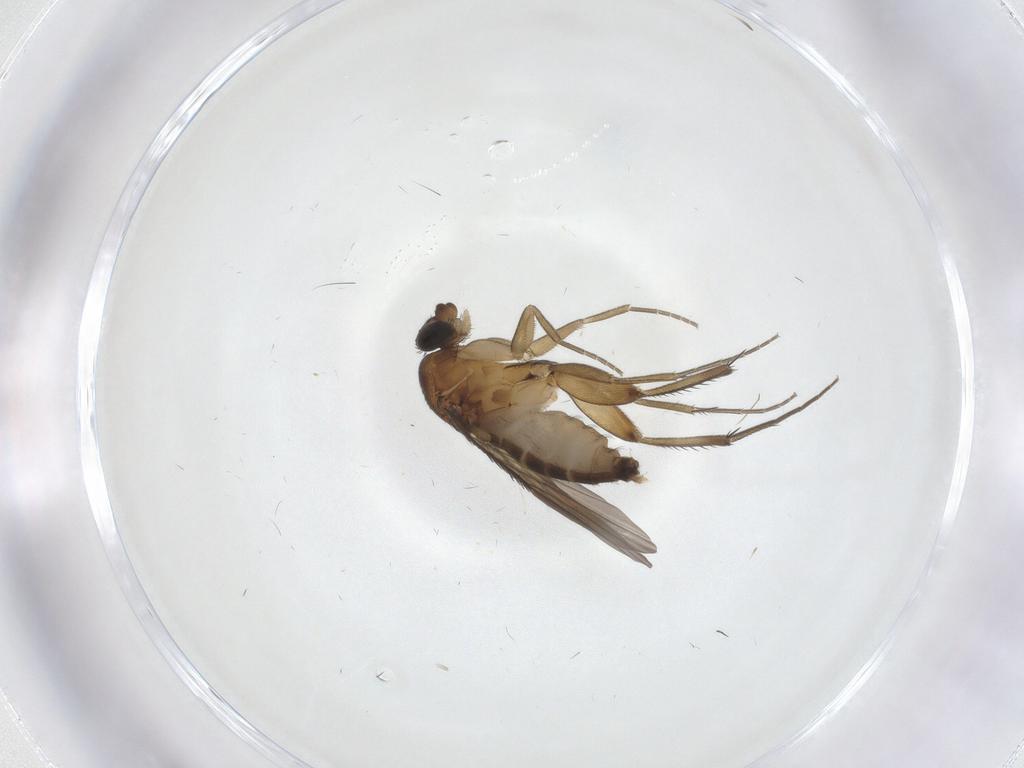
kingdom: Animalia
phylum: Arthropoda
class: Insecta
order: Diptera
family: Phoridae
